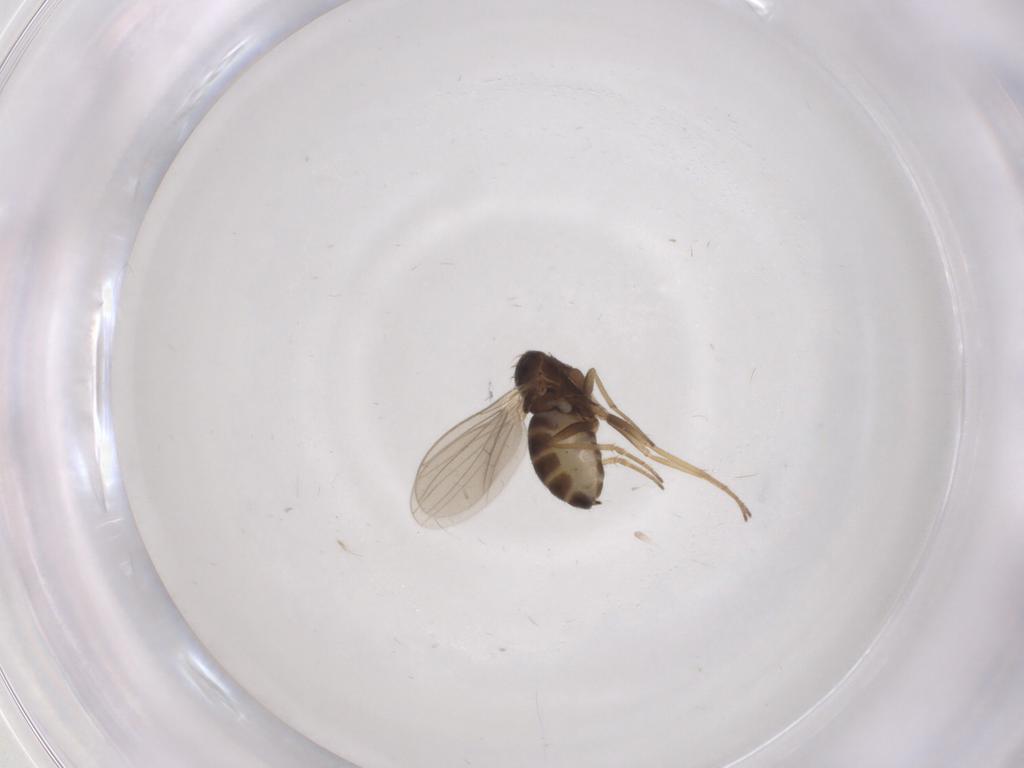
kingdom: Animalia
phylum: Arthropoda
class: Insecta
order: Diptera
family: Dolichopodidae
